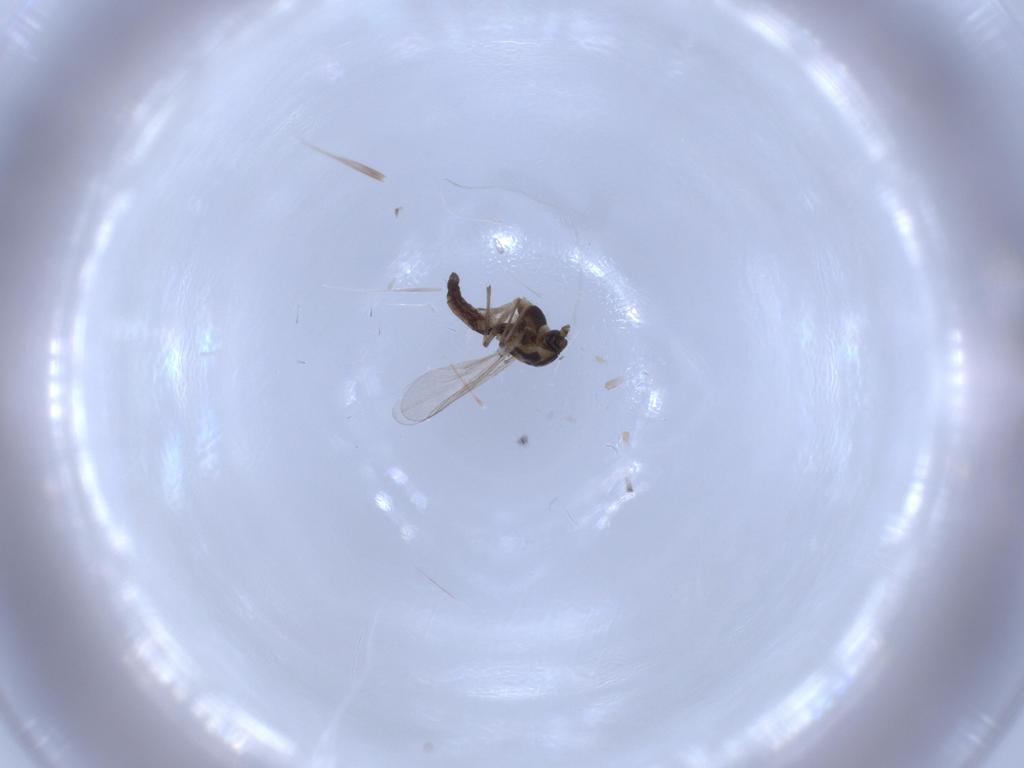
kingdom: Animalia
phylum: Arthropoda
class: Insecta
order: Diptera
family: Chironomidae
